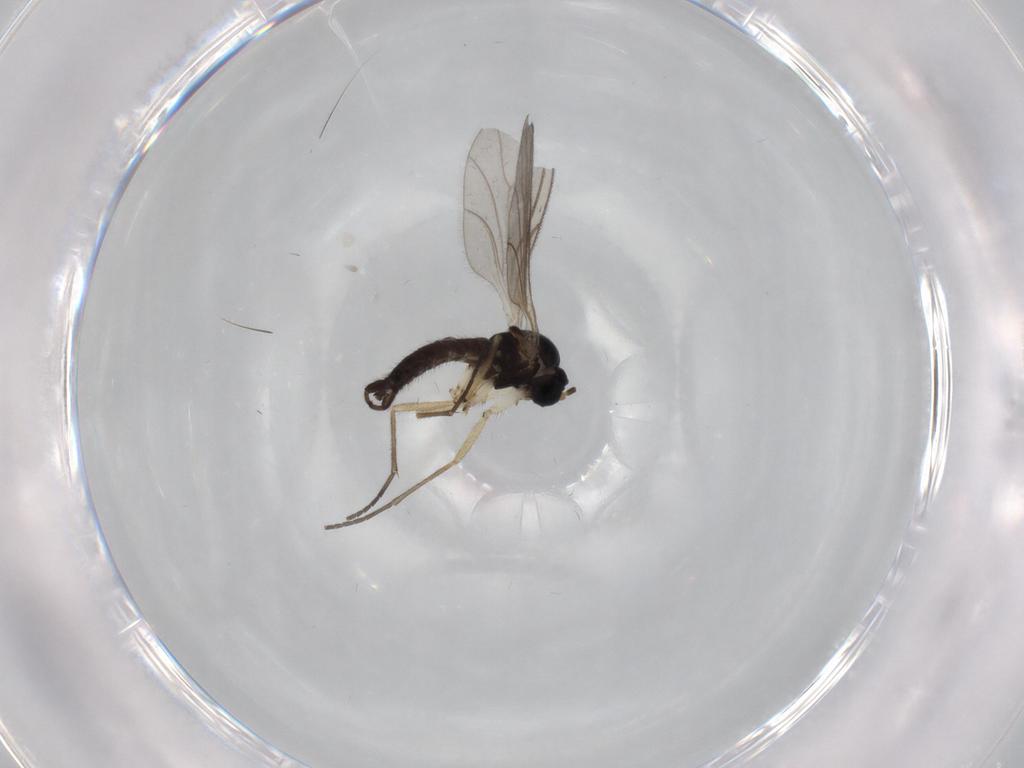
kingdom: Animalia
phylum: Arthropoda
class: Insecta
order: Diptera
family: Sciaridae
